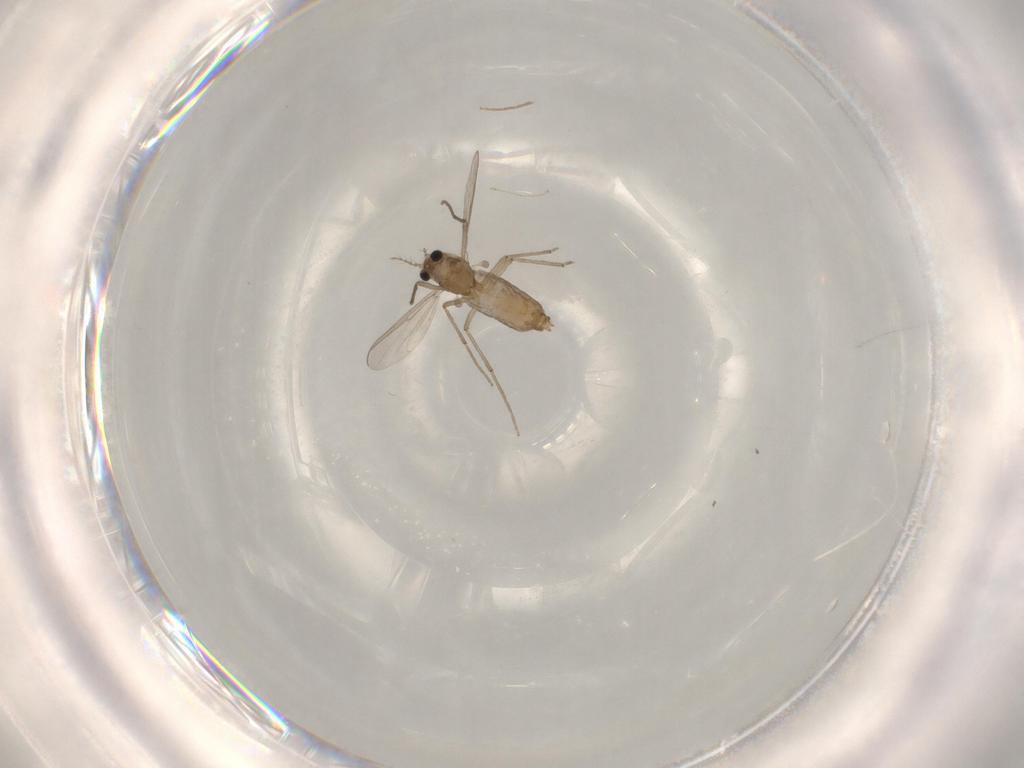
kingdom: Animalia
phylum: Arthropoda
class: Insecta
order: Diptera
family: Chironomidae
